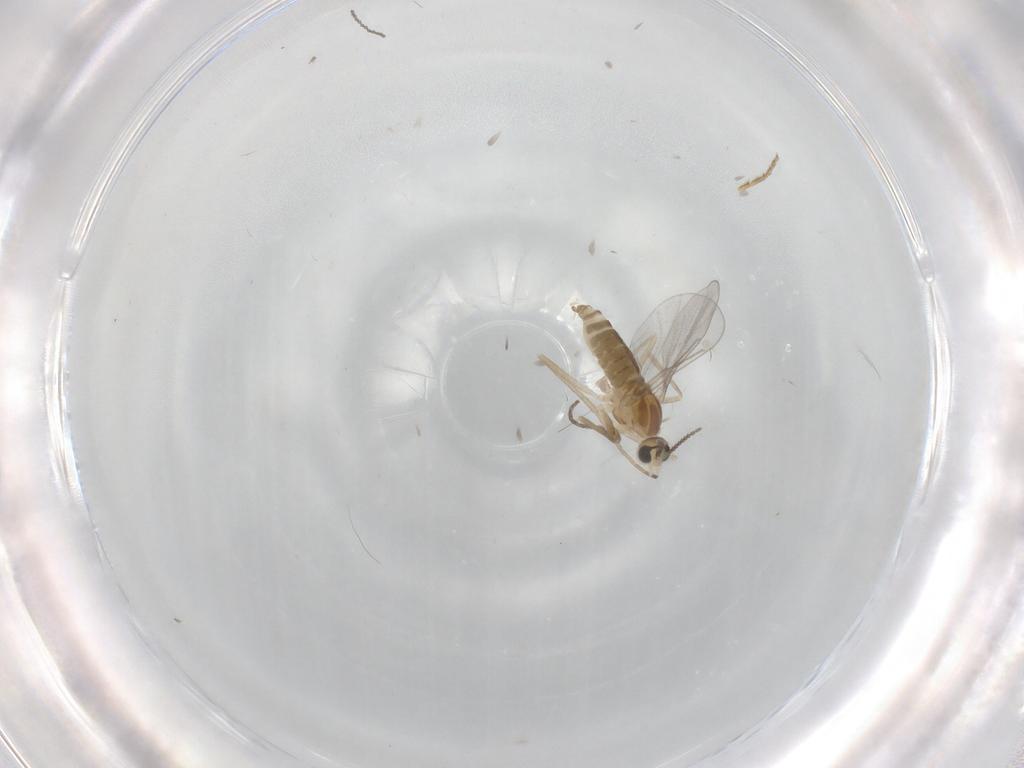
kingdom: Animalia
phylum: Arthropoda
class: Insecta
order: Diptera
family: Cecidomyiidae
